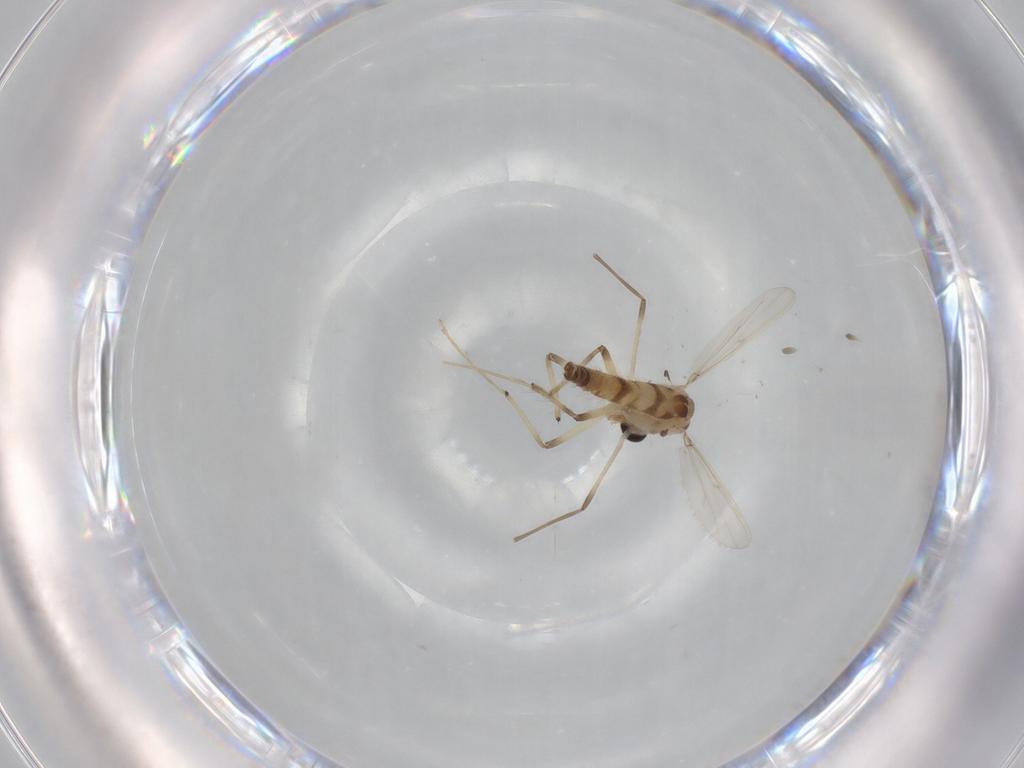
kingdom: Animalia
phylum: Arthropoda
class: Insecta
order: Diptera
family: Chironomidae
